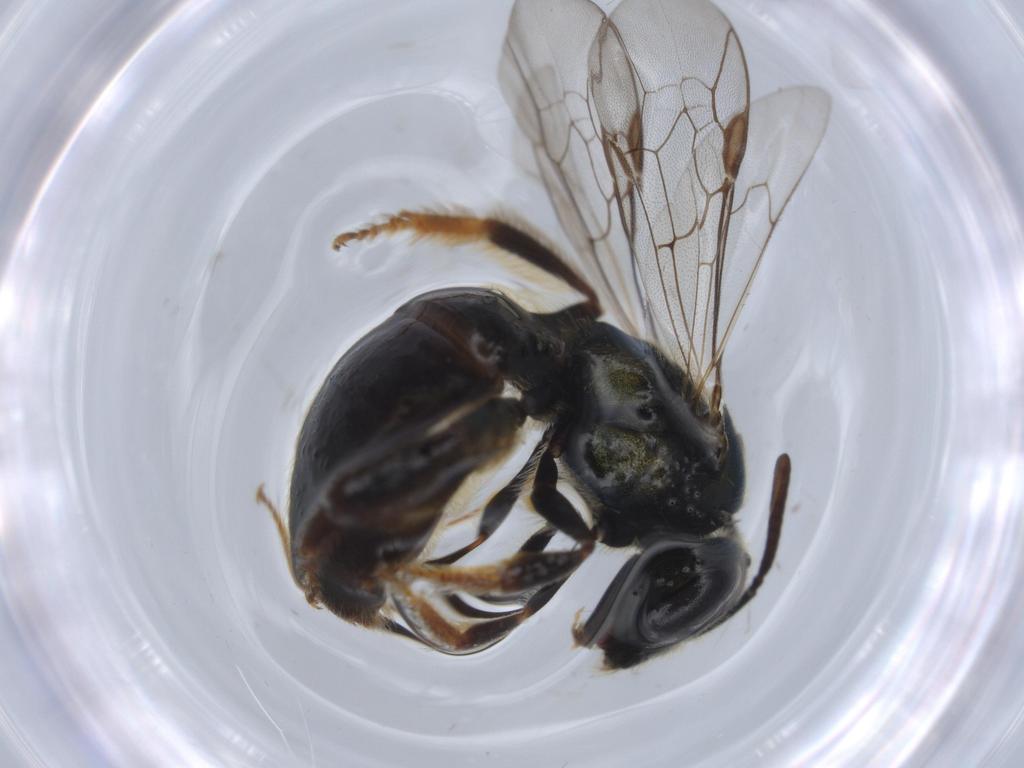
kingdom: Animalia
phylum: Arthropoda
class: Insecta
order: Hymenoptera
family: Halictidae
